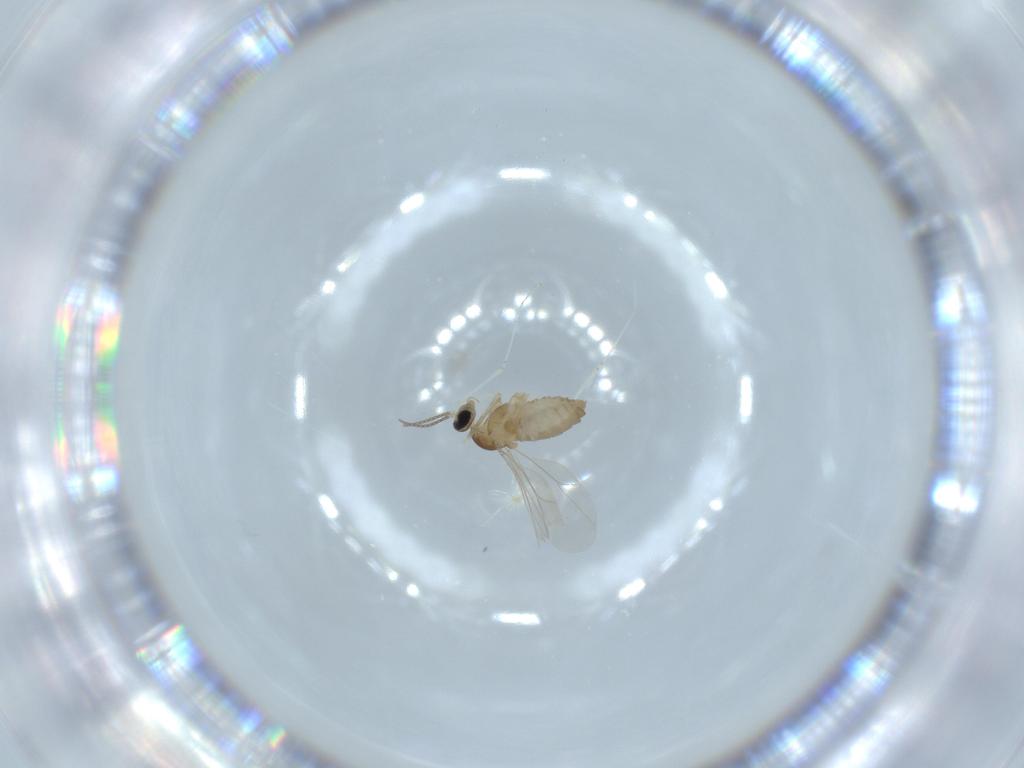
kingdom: Animalia
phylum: Arthropoda
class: Insecta
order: Diptera
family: Cecidomyiidae
